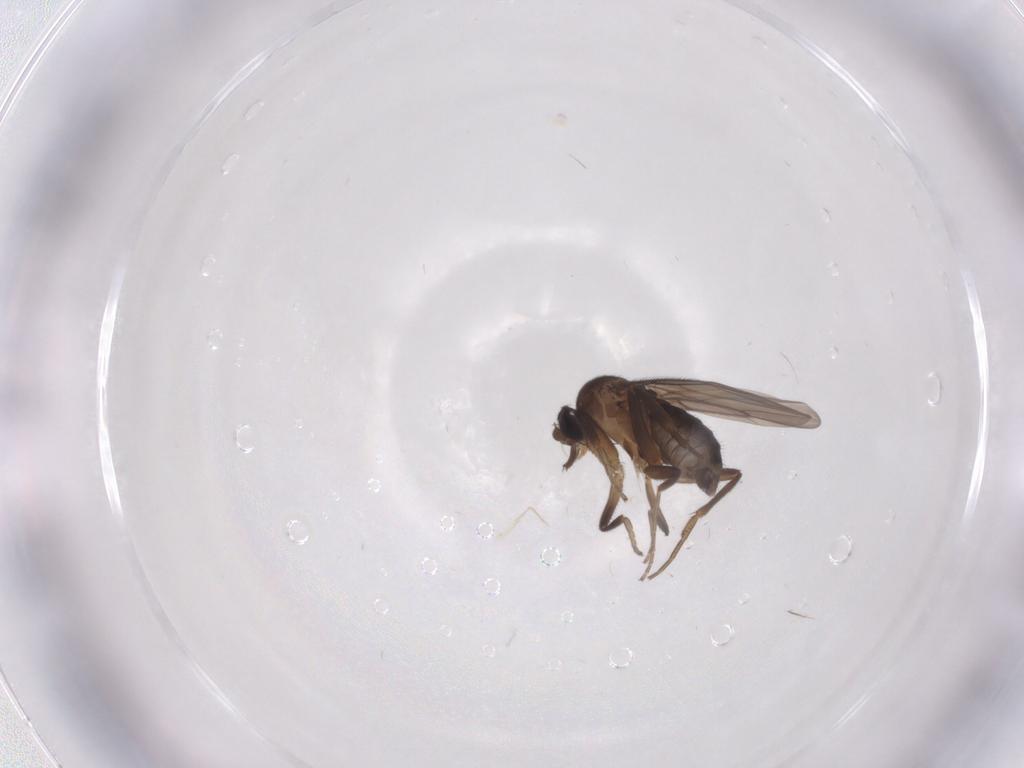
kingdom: Animalia
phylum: Arthropoda
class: Insecta
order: Diptera
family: Phoridae
